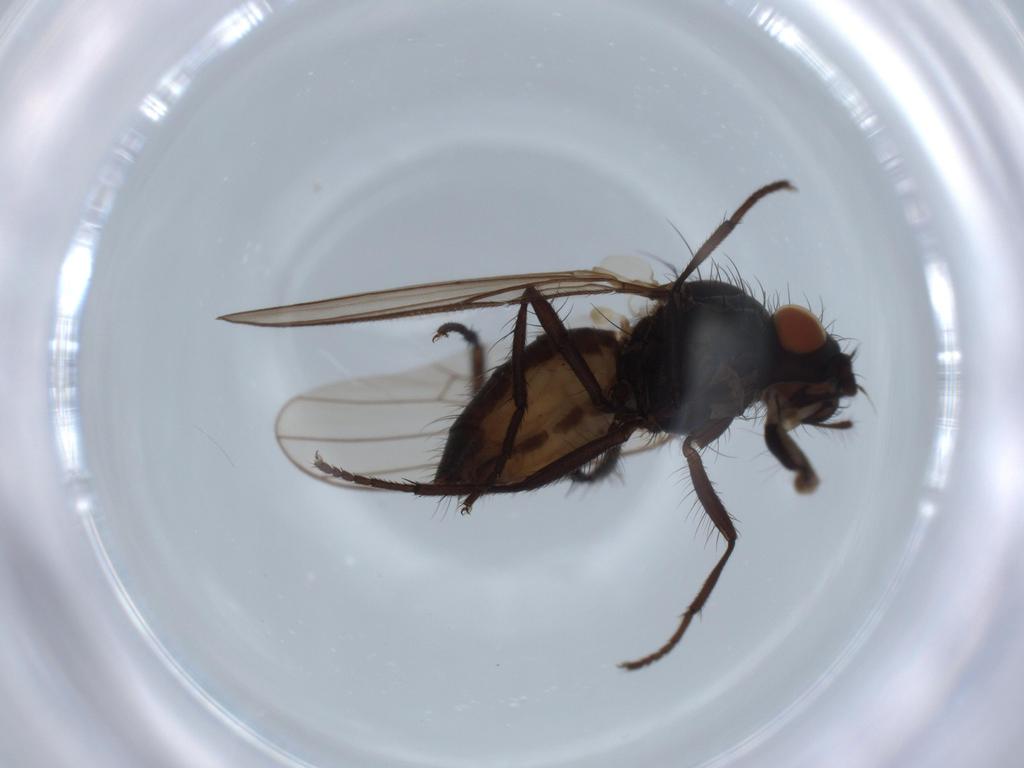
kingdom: Animalia
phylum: Arthropoda
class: Insecta
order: Diptera
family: Anthomyiidae
